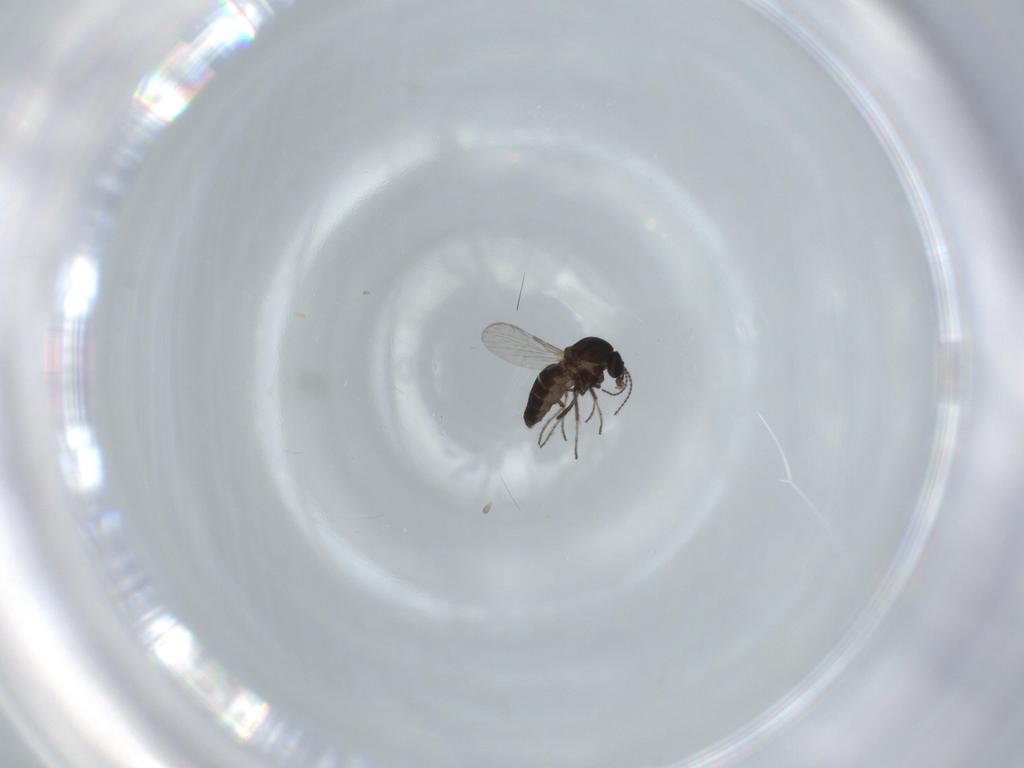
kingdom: Animalia
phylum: Arthropoda
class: Insecta
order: Diptera
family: Ceratopogonidae
